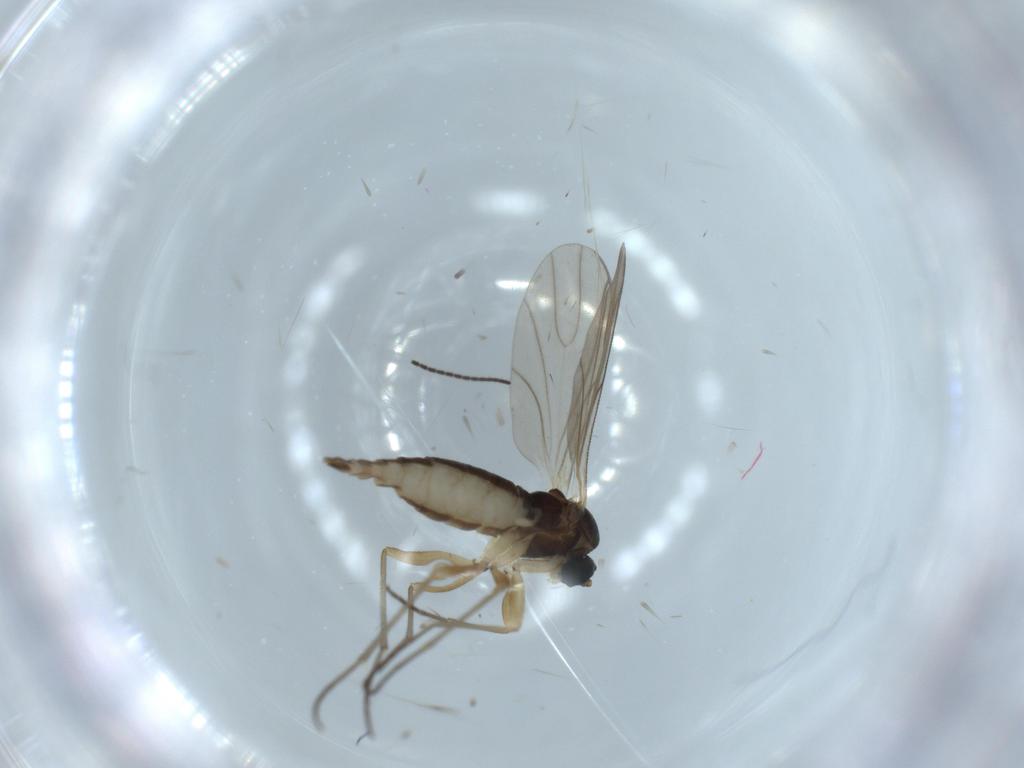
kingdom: Animalia
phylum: Arthropoda
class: Insecta
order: Diptera
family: Sciaridae
